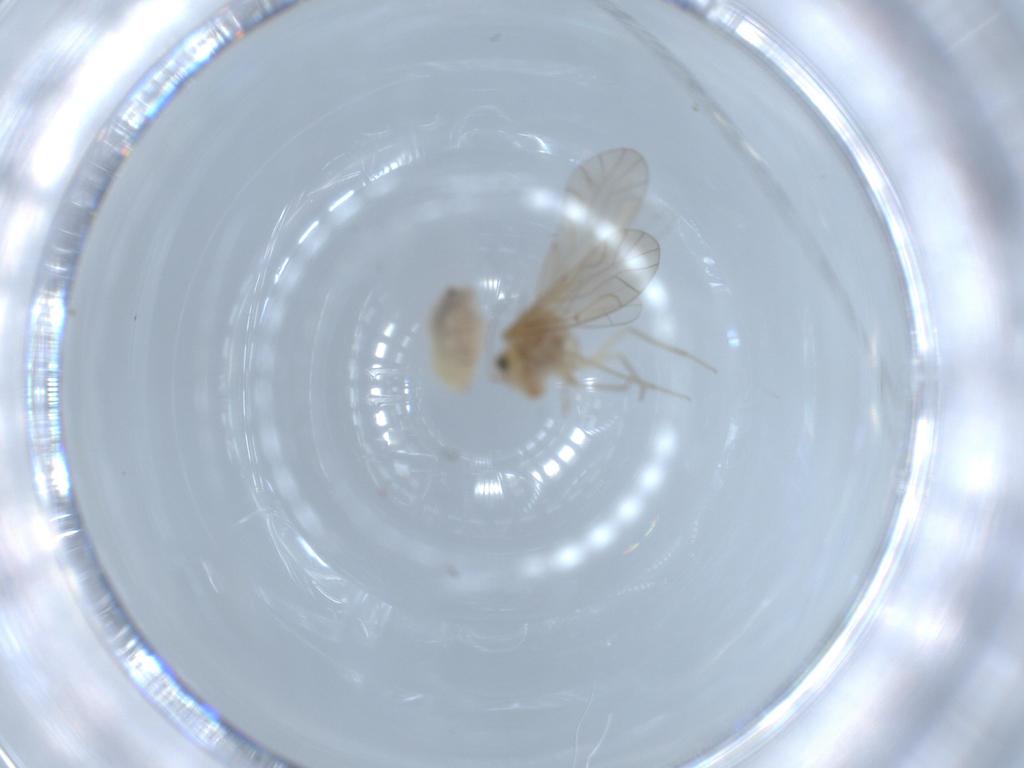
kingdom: Animalia
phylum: Arthropoda
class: Insecta
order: Psocodea
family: Lachesillidae
